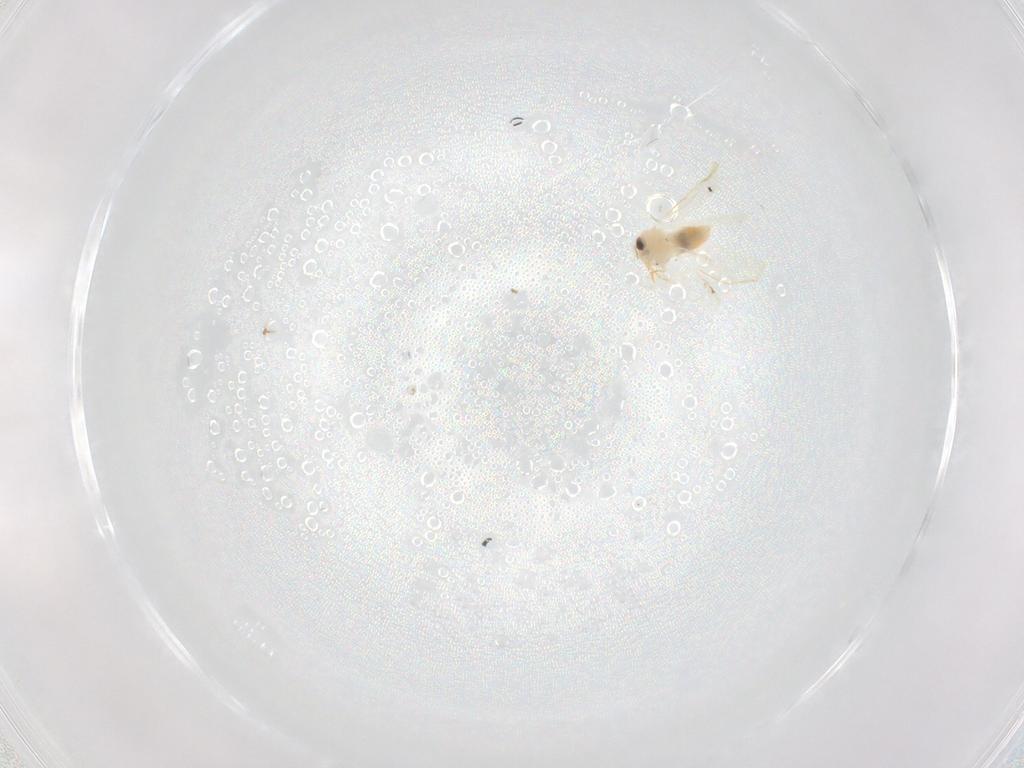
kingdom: Animalia
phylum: Arthropoda
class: Insecta
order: Hemiptera
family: Aleyrodidae
